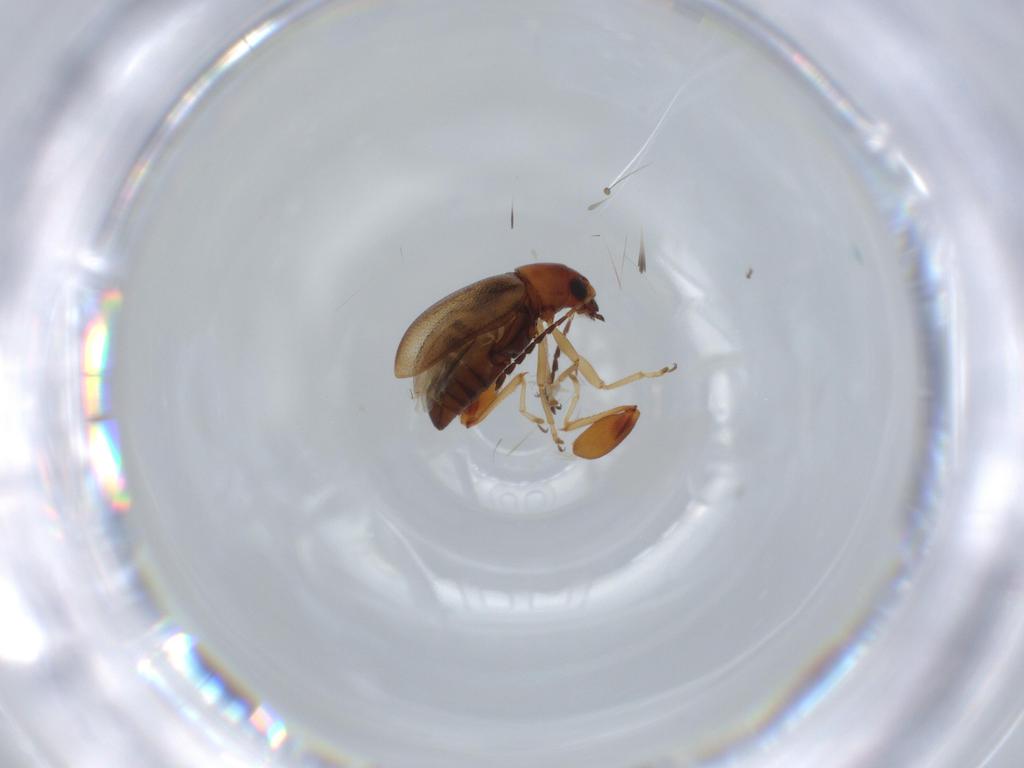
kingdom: Animalia
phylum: Arthropoda
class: Insecta
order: Coleoptera
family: Chrysomelidae
